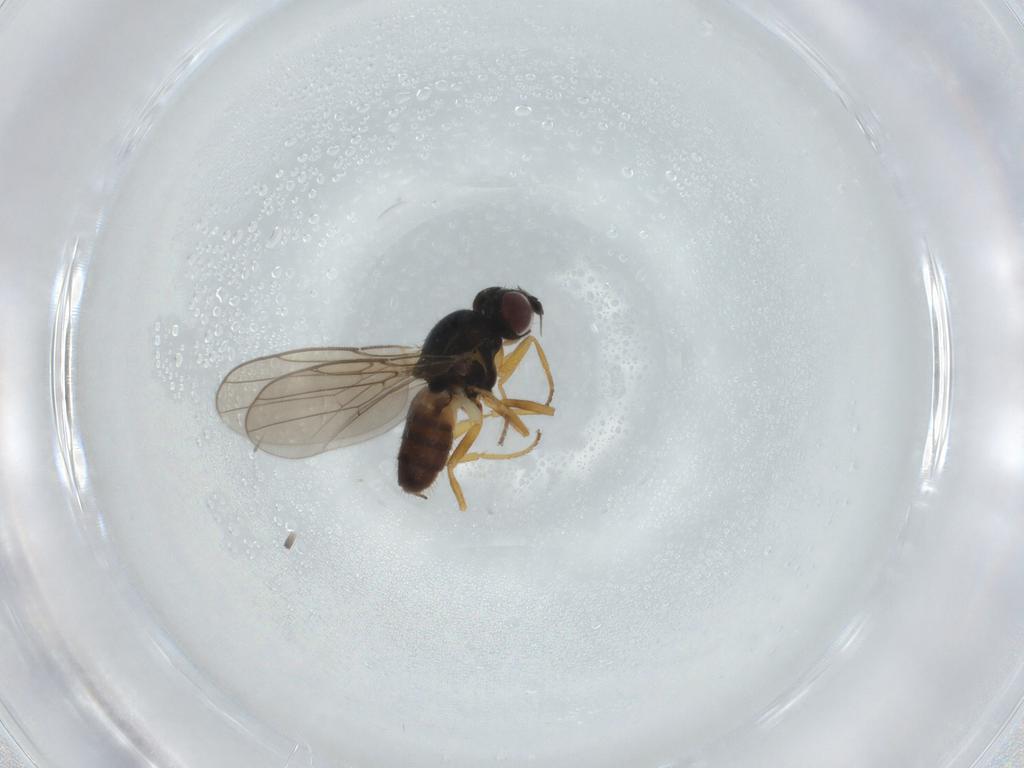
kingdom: Animalia
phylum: Arthropoda
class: Insecta
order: Diptera
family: Chloropidae
